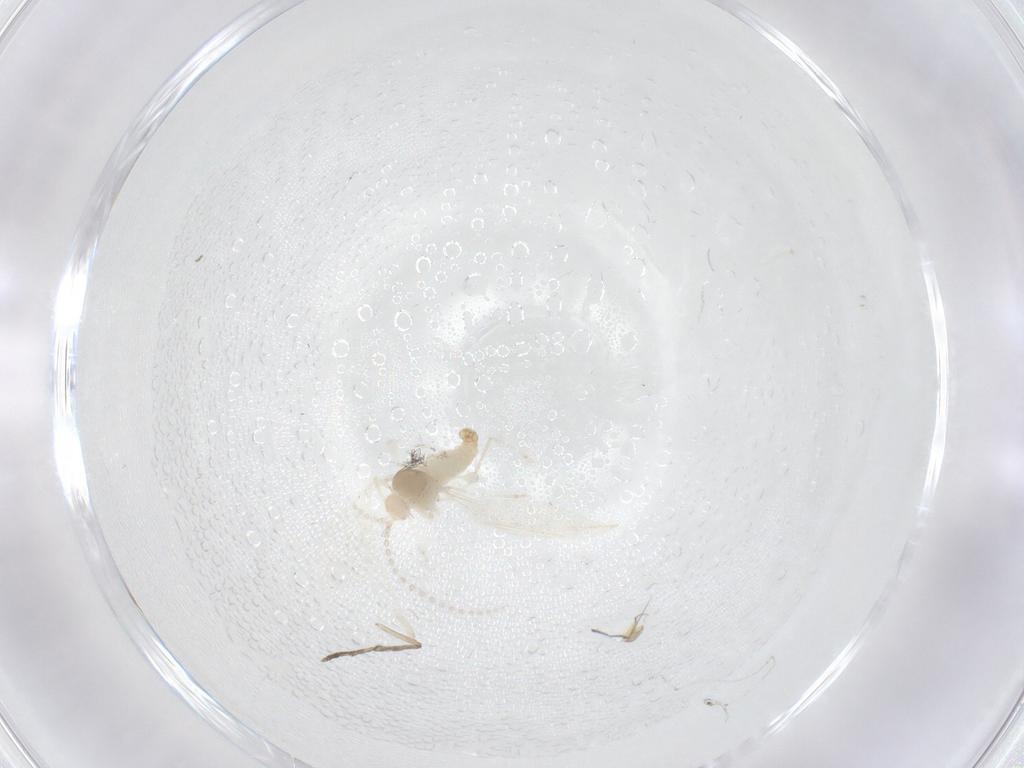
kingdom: Animalia
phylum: Arthropoda
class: Insecta
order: Diptera
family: Cecidomyiidae
